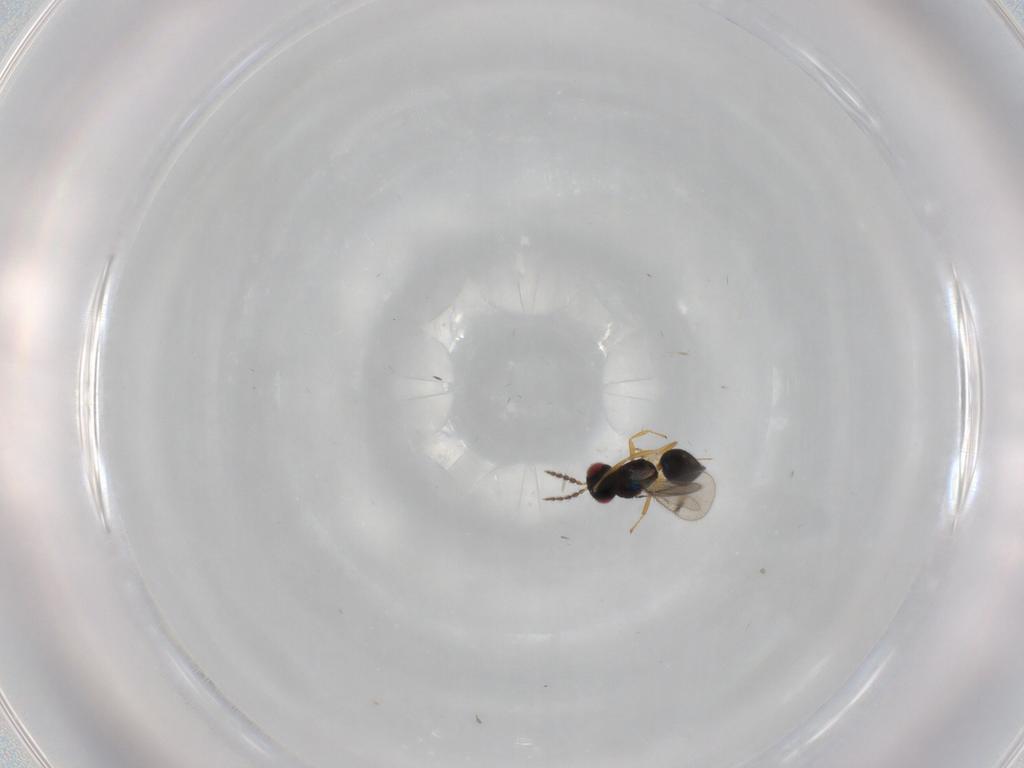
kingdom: Animalia
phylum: Arthropoda
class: Insecta
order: Hymenoptera
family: Eulophidae
